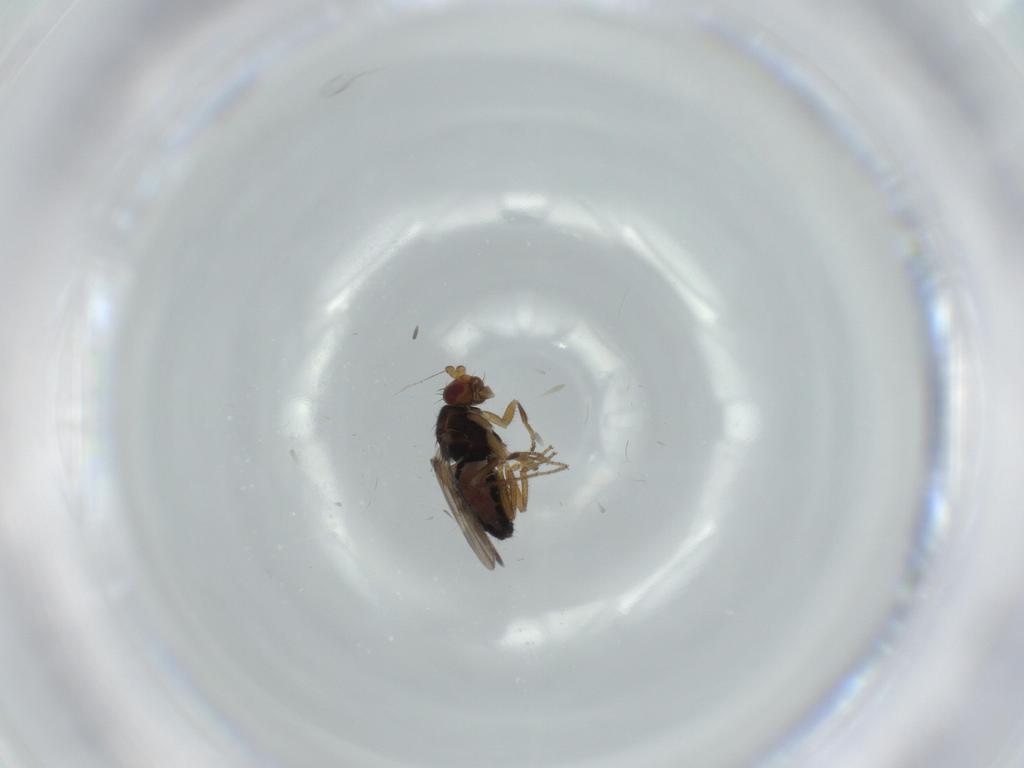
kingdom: Animalia
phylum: Arthropoda
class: Insecta
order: Diptera
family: Sphaeroceridae
